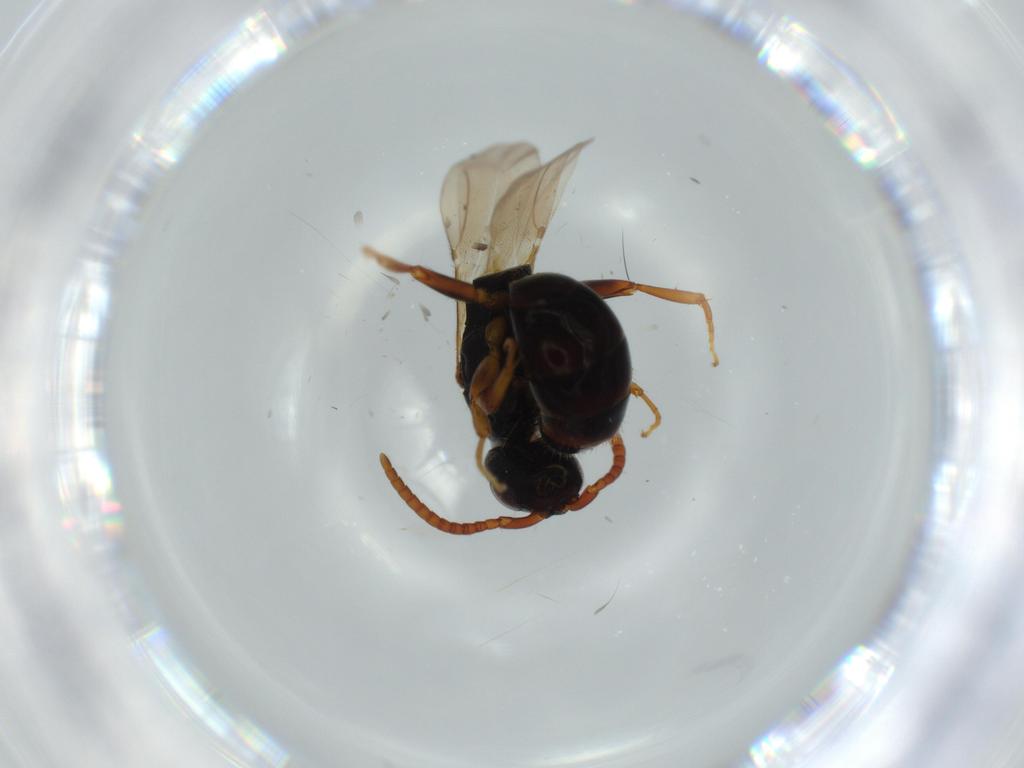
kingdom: Animalia
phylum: Arthropoda
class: Insecta
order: Hymenoptera
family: Bethylidae
